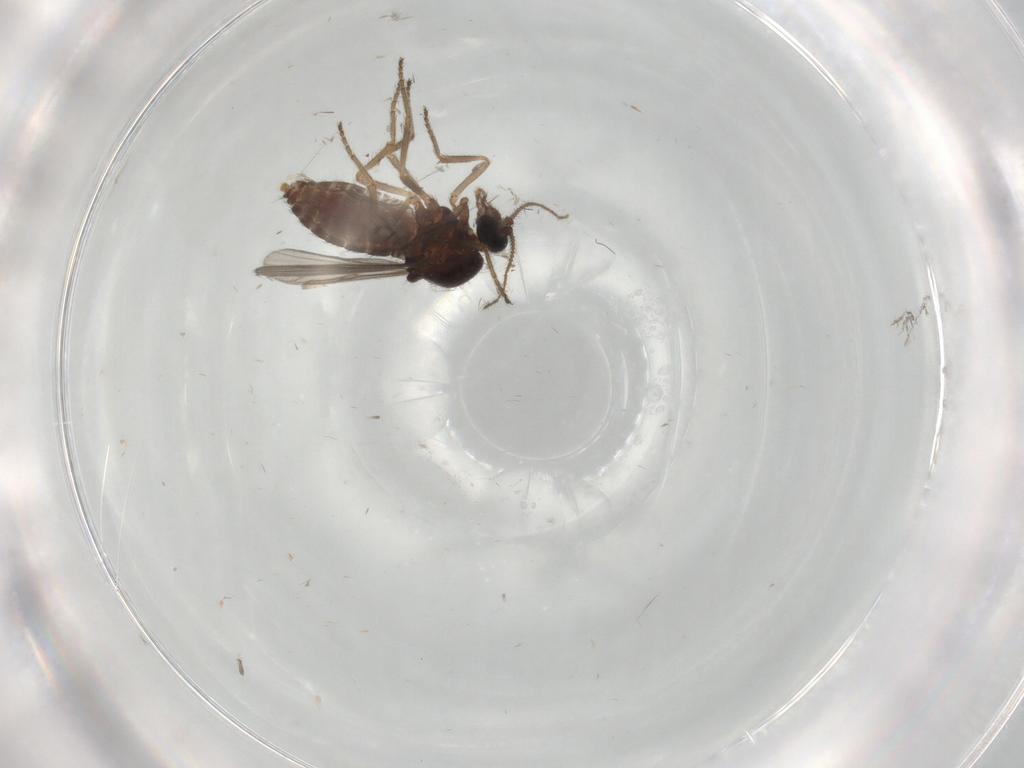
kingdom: Animalia
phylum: Arthropoda
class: Insecta
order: Diptera
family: Ceratopogonidae
